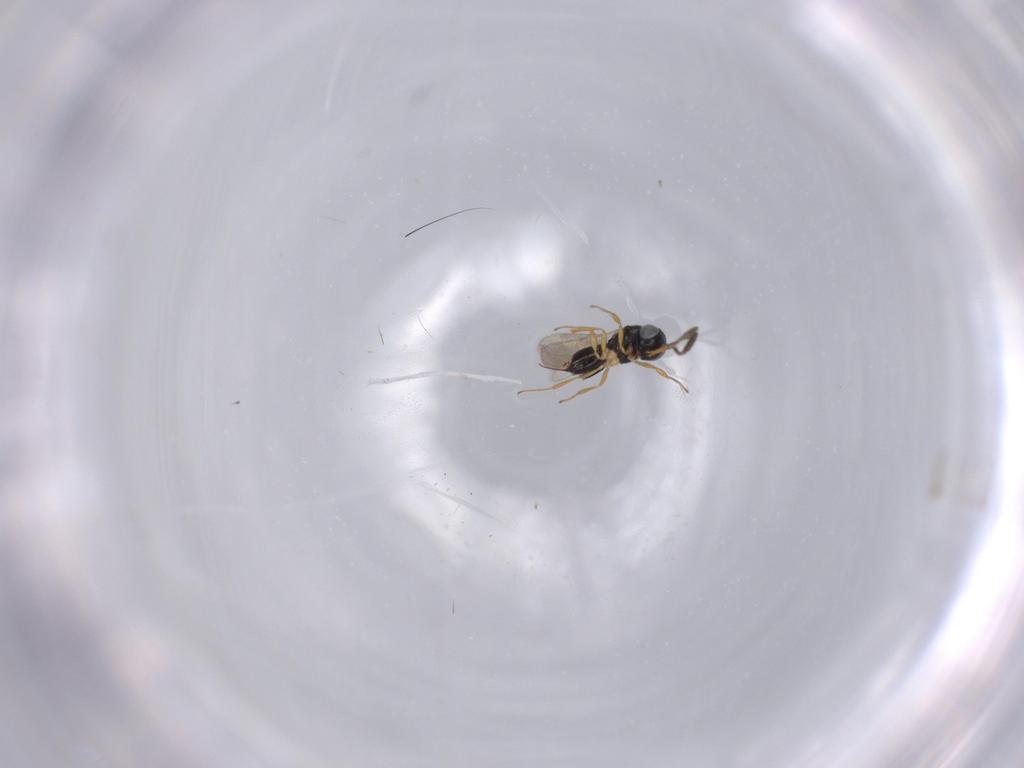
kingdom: Animalia
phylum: Arthropoda
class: Insecta
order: Hymenoptera
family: Scelionidae
